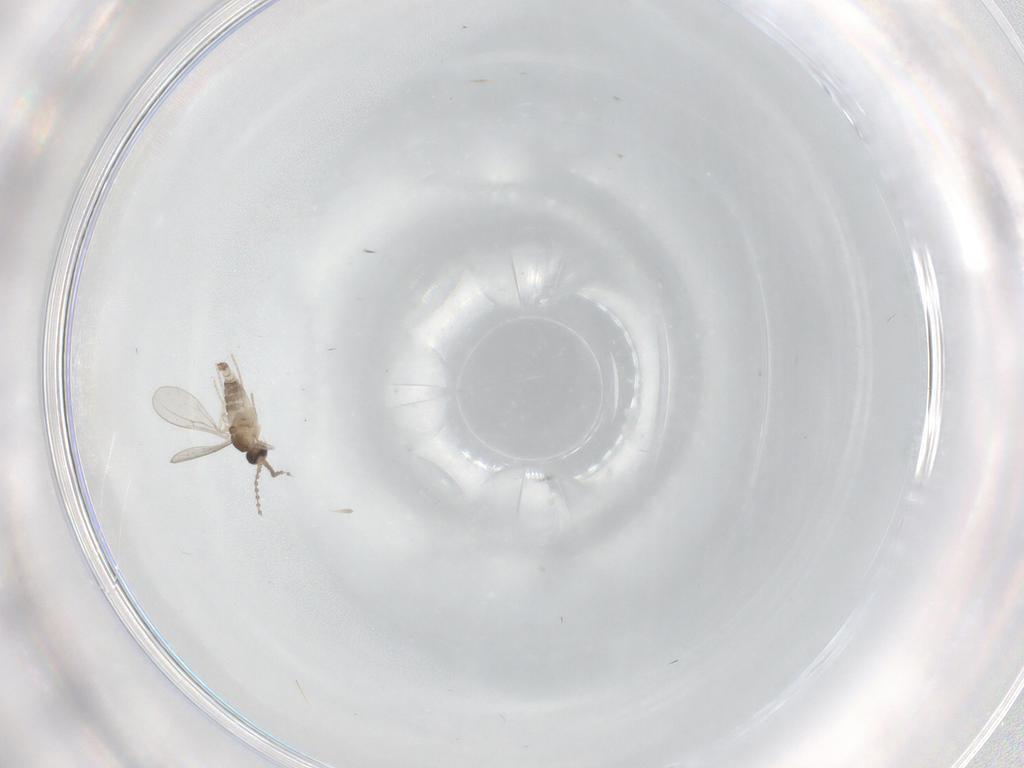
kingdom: Animalia
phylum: Arthropoda
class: Insecta
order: Diptera
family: Cecidomyiidae
